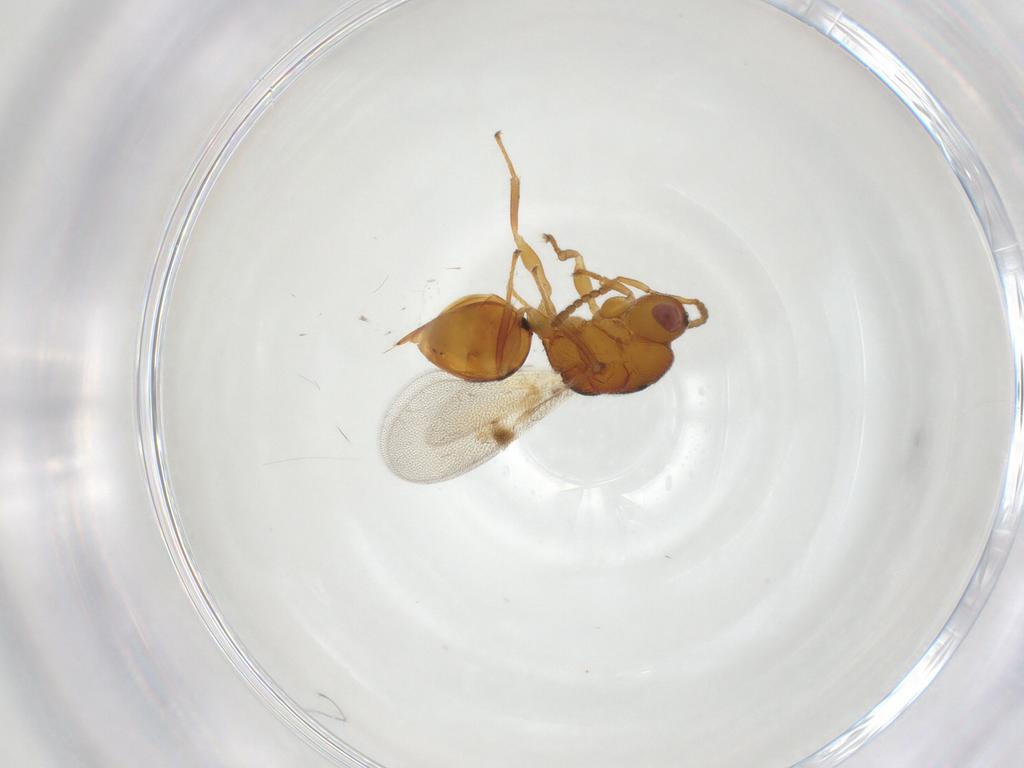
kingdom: Animalia
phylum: Arthropoda
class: Insecta
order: Hymenoptera
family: Eurytomidae
